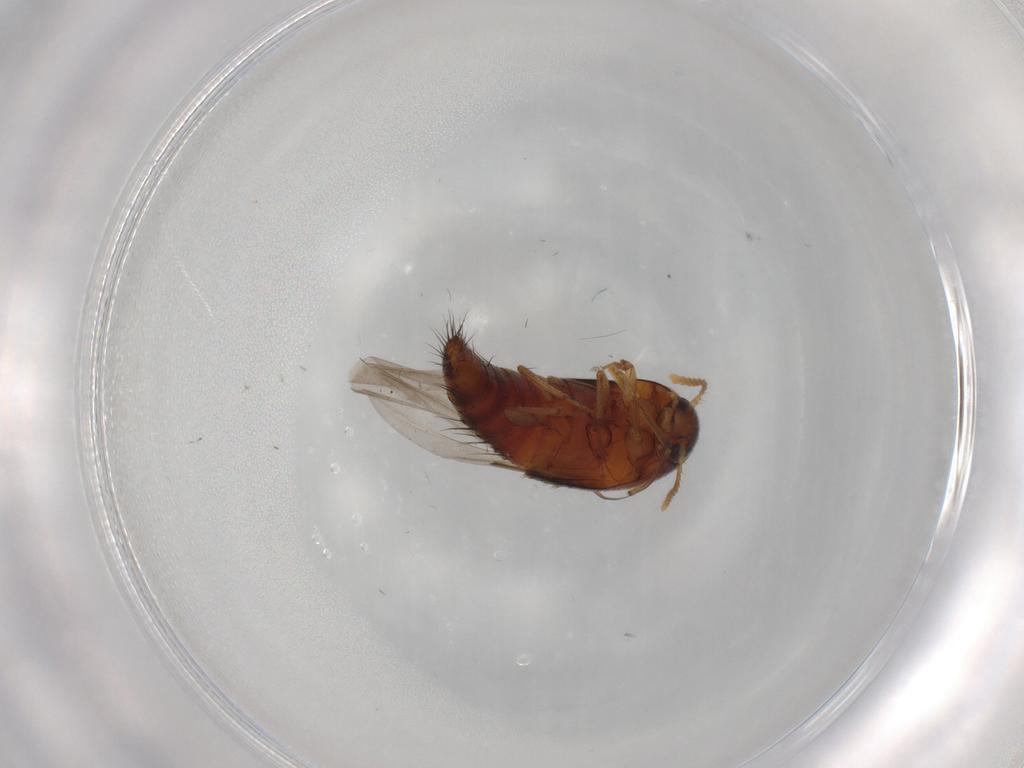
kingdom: Animalia
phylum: Arthropoda
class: Insecta
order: Coleoptera
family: Staphylinidae
